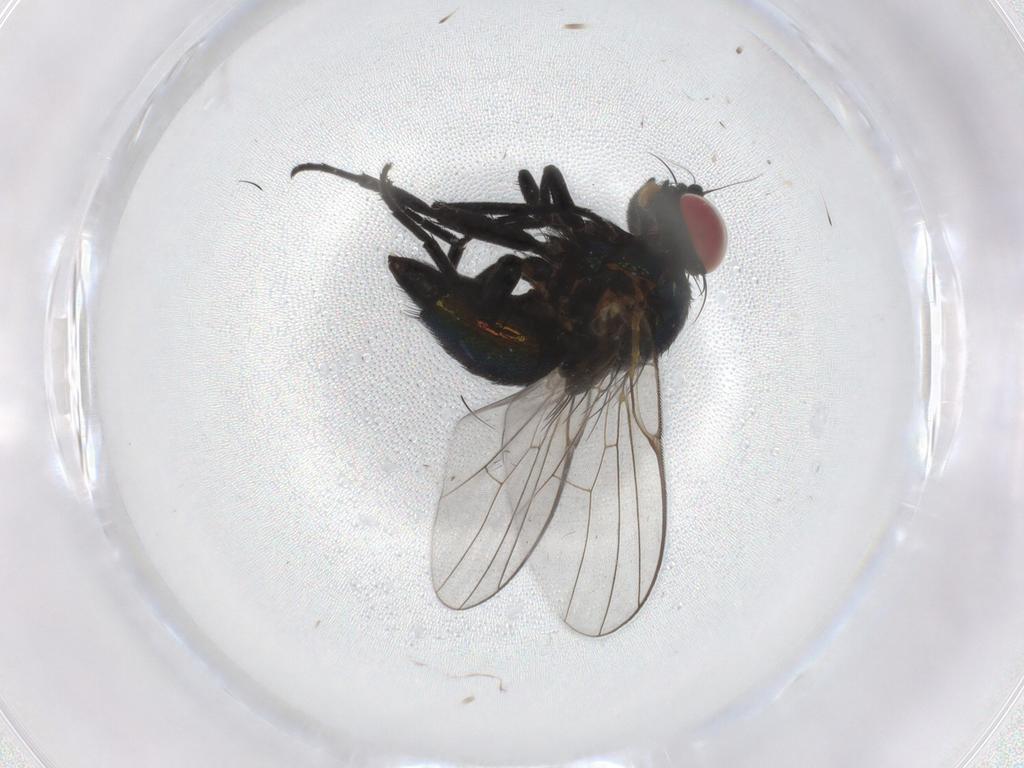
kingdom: Animalia
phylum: Arthropoda
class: Insecta
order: Diptera
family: Agromyzidae
